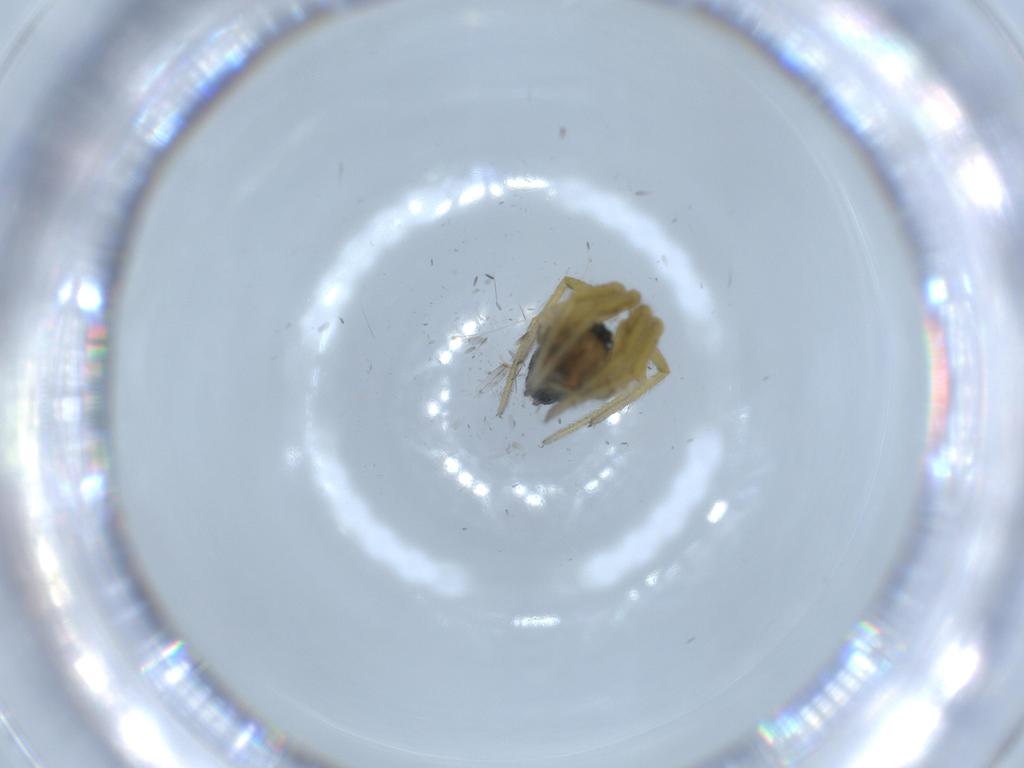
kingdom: Animalia
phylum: Arthropoda
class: Arachnida
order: Araneae
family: Linyphiidae
